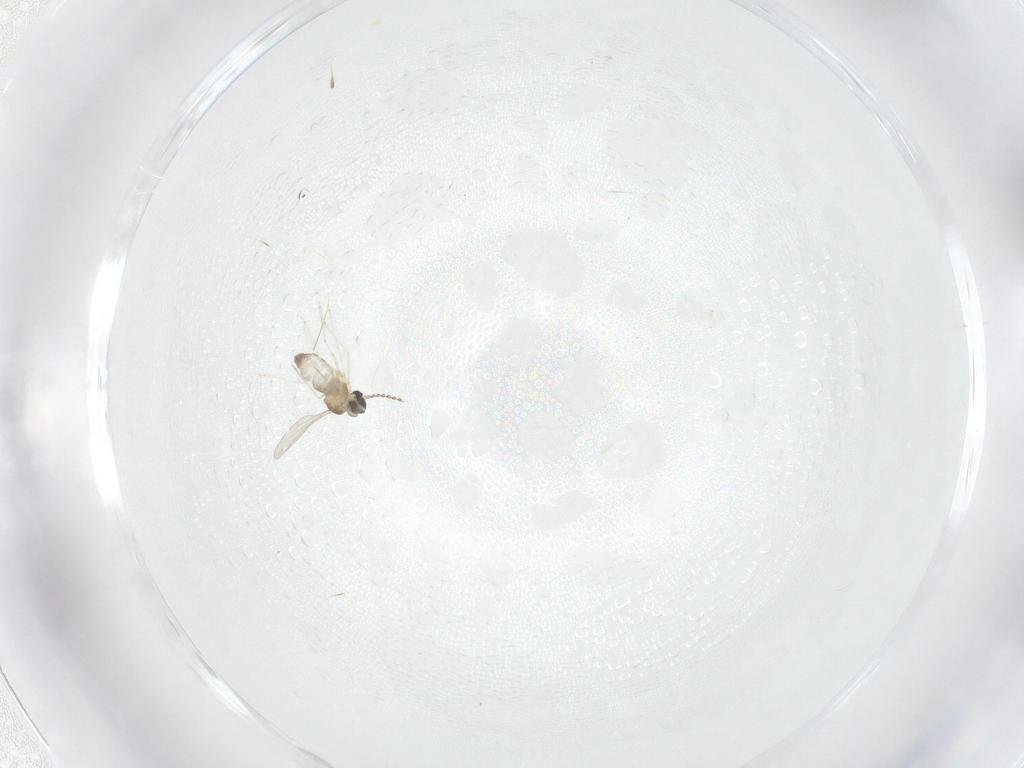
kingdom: Animalia
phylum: Arthropoda
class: Insecta
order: Diptera
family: Cecidomyiidae
